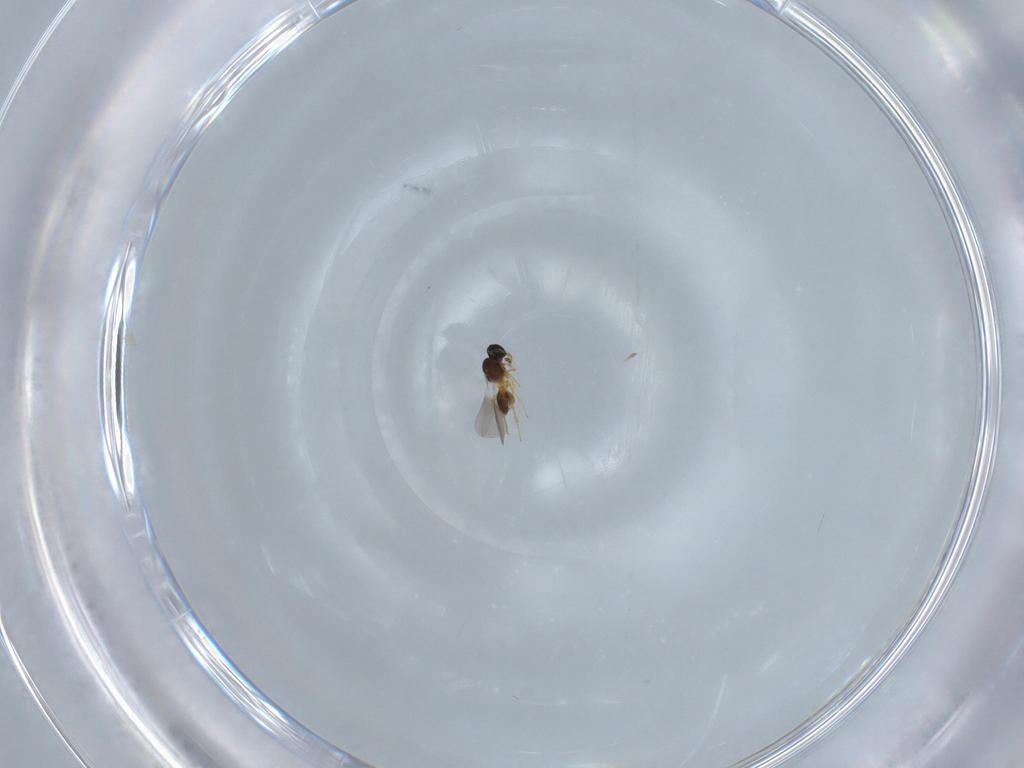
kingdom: Animalia
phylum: Arthropoda
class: Insecta
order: Hymenoptera
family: Platygastridae
